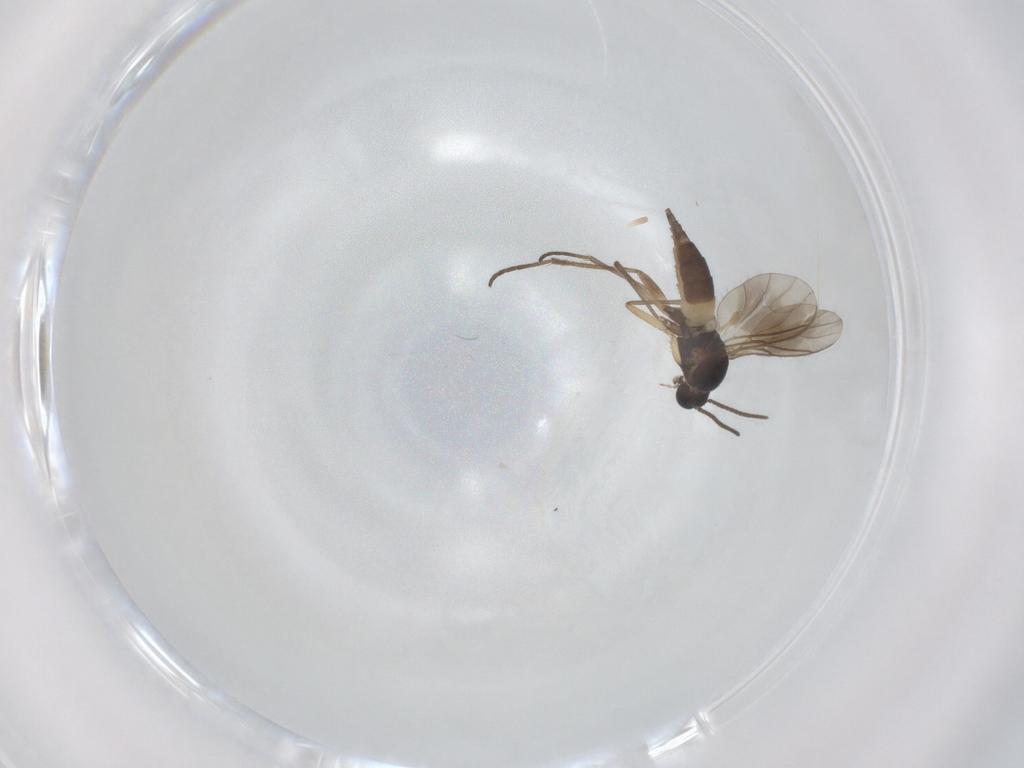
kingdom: Animalia
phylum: Arthropoda
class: Insecta
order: Diptera
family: Sciaridae
